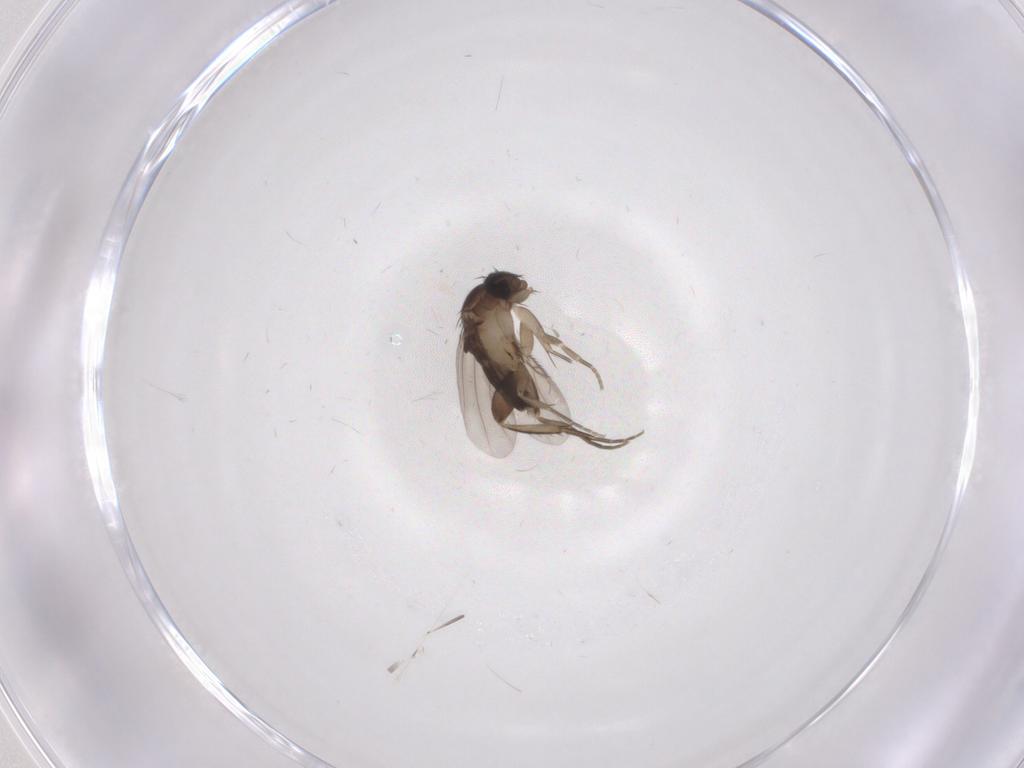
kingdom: Animalia
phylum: Arthropoda
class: Insecta
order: Diptera
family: Phoridae
